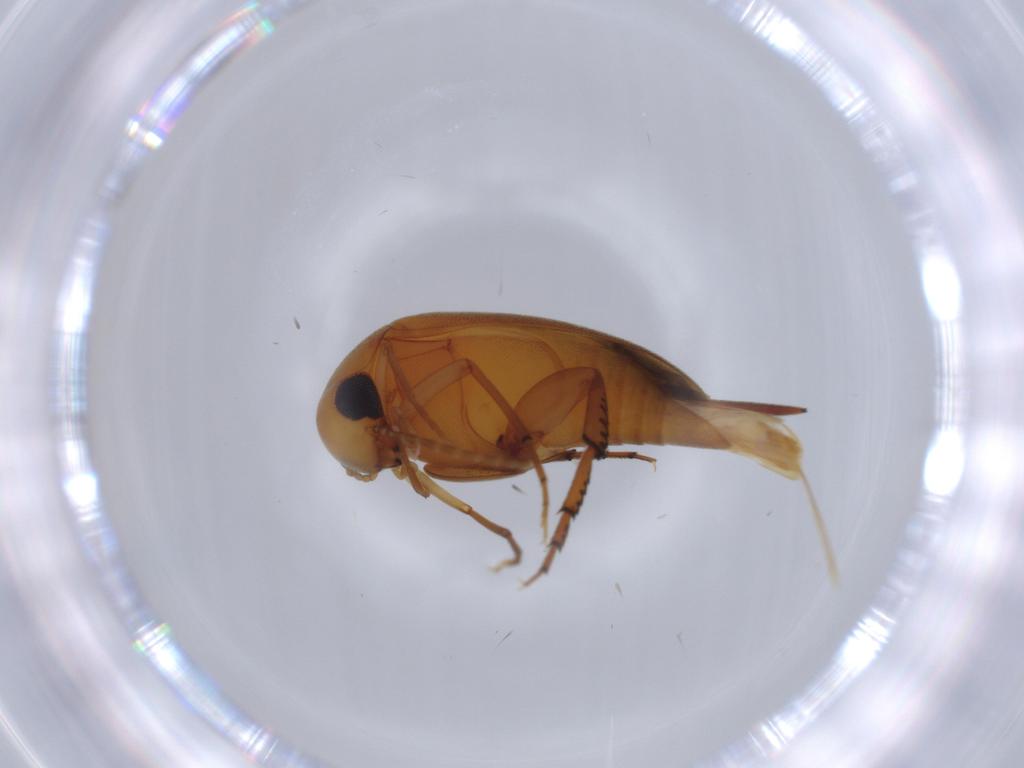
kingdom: Animalia
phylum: Arthropoda
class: Insecta
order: Coleoptera
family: Mordellidae
